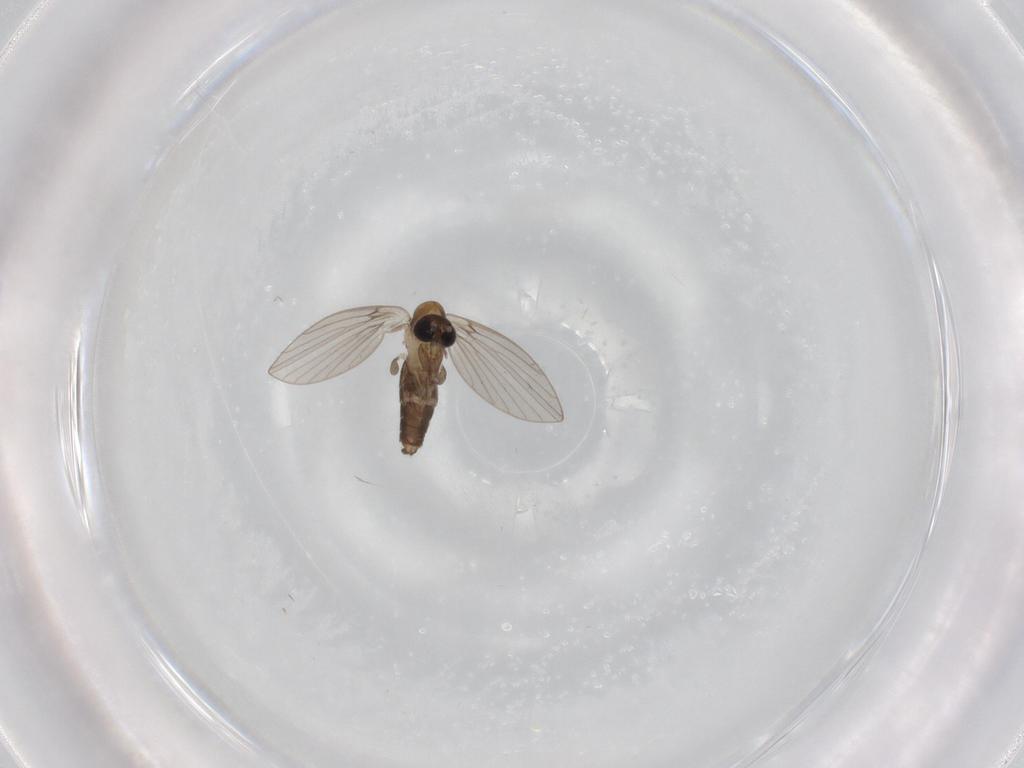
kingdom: Animalia
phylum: Arthropoda
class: Insecta
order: Diptera
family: Psychodidae
